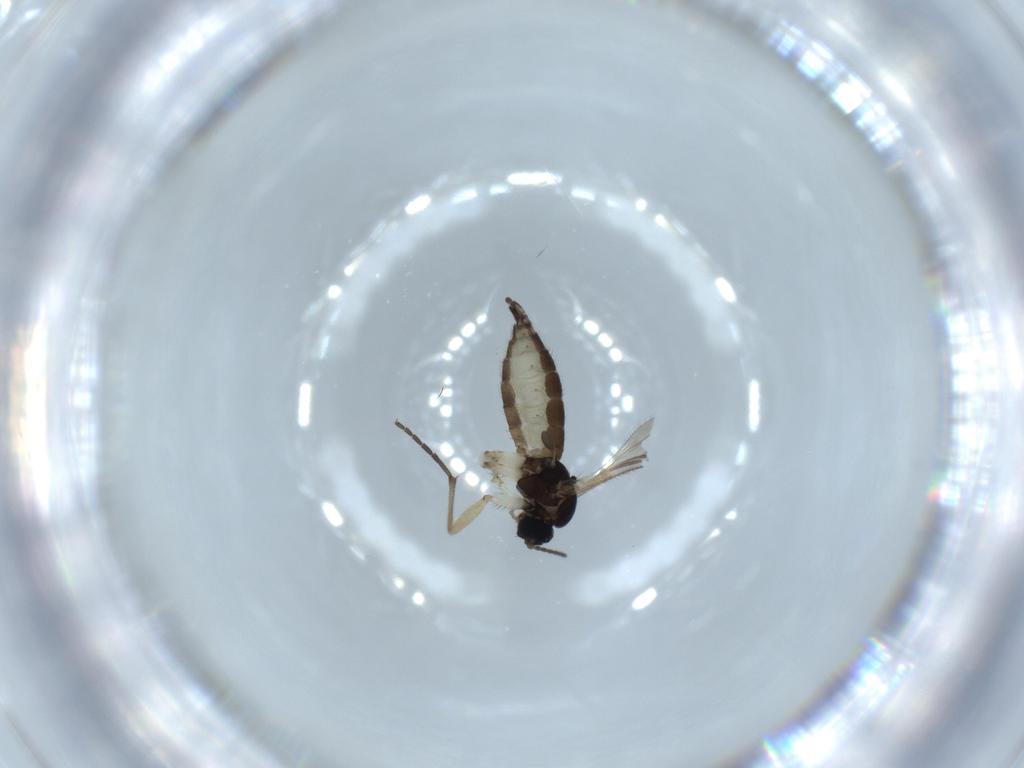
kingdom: Animalia
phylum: Arthropoda
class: Insecta
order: Diptera
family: Sciaridae
